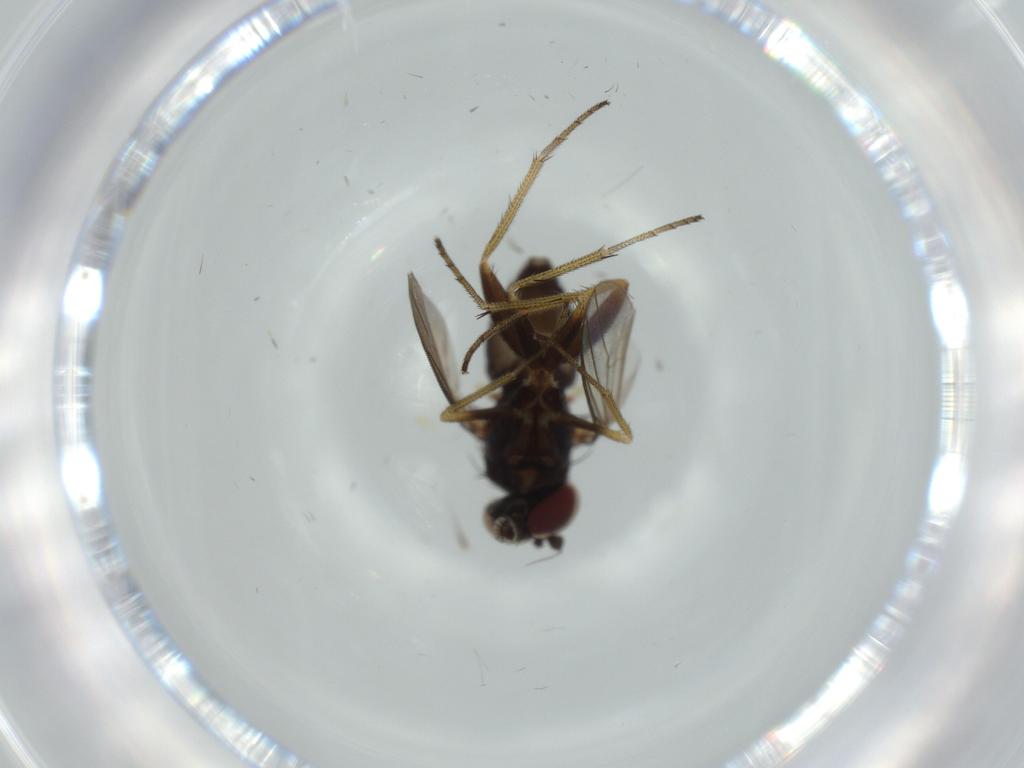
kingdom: Animalia
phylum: Arthropoda
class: Insecta
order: Diptera
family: Dolichopodidae
